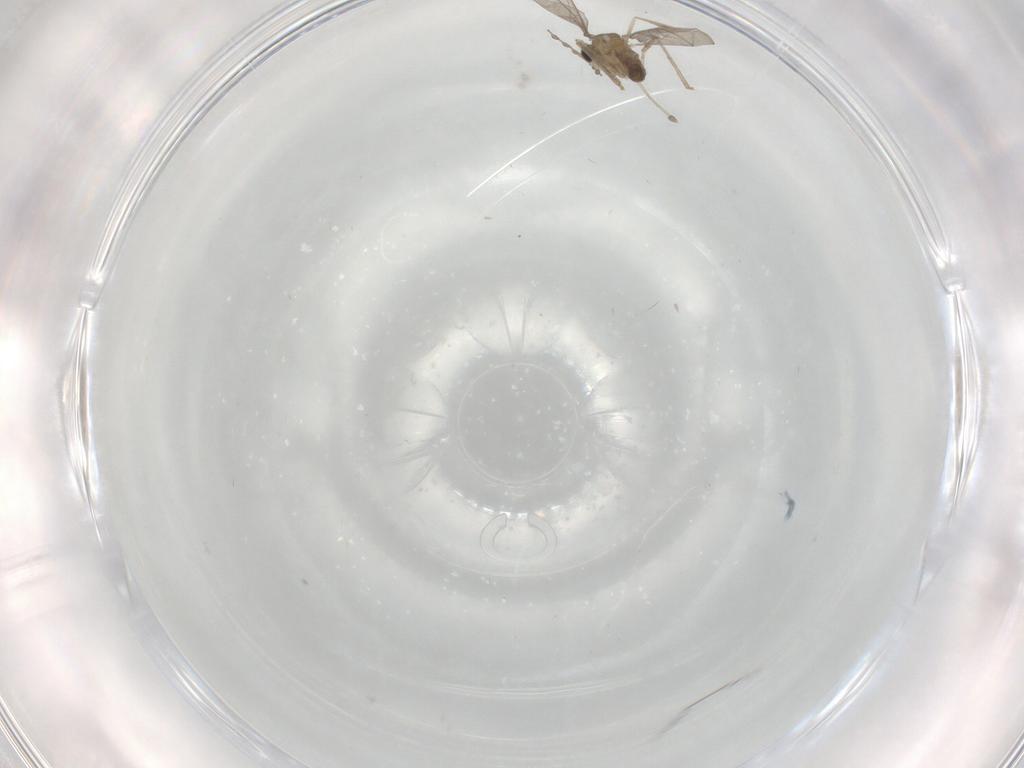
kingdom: Animalia
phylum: Arthropoda
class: Insecta
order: Diptera
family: Cecidomyiidae
